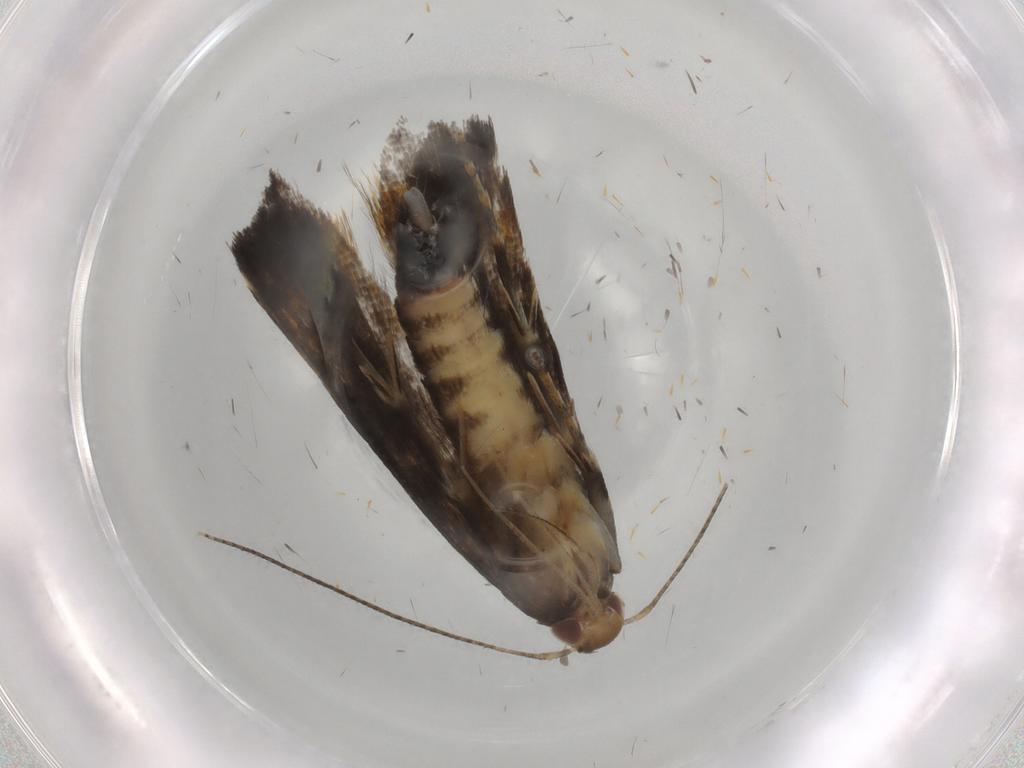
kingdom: Animalia
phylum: Arthropoda
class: Insecta
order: Lepidoptera
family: Gelechiidae
